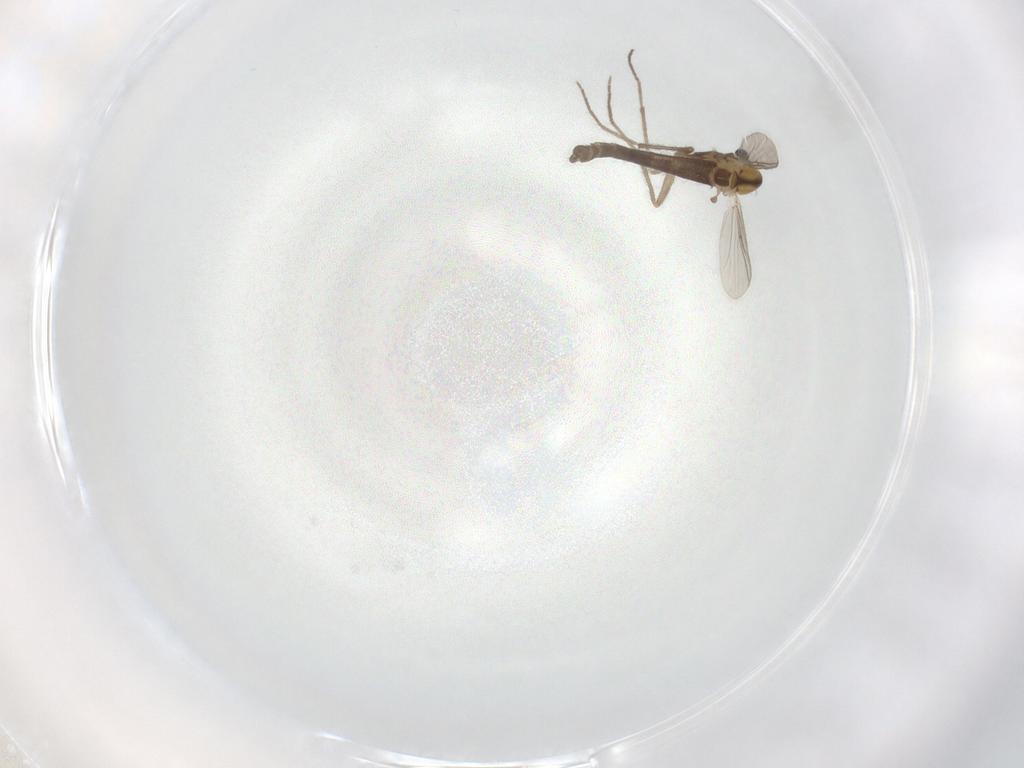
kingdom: Animalia
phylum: Arthropoda
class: Insecta
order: Diptera
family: Chironomidae
